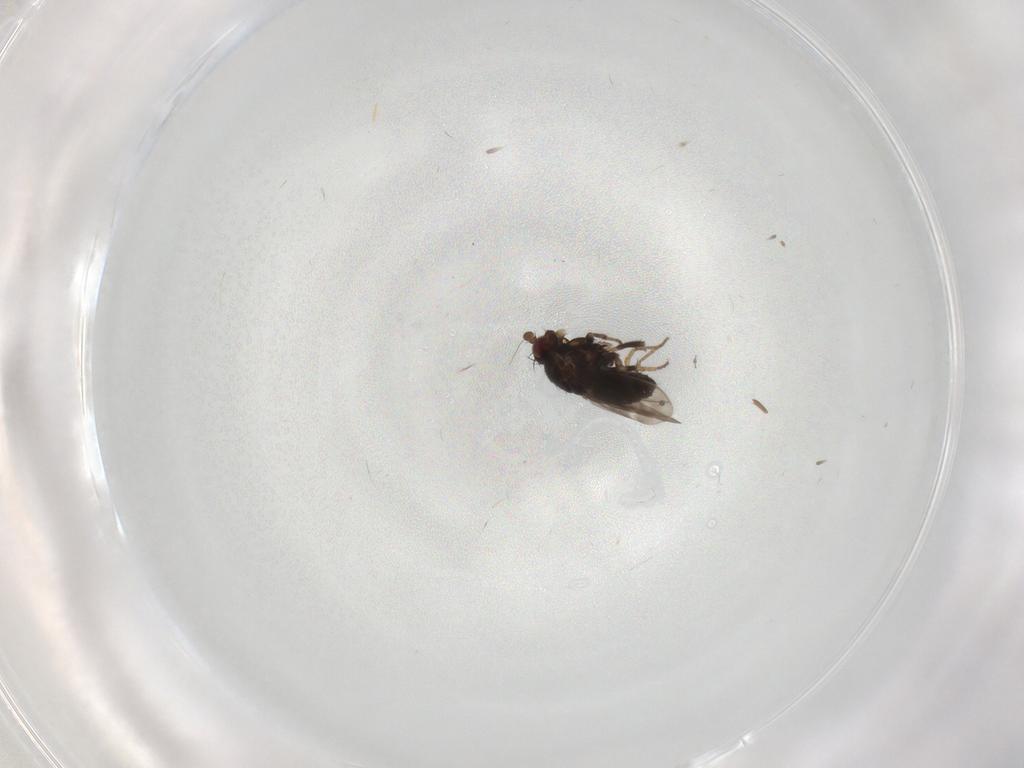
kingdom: Animalia
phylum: Arthropoda
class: Insecta
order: Diptera
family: Sphaeroceridae
